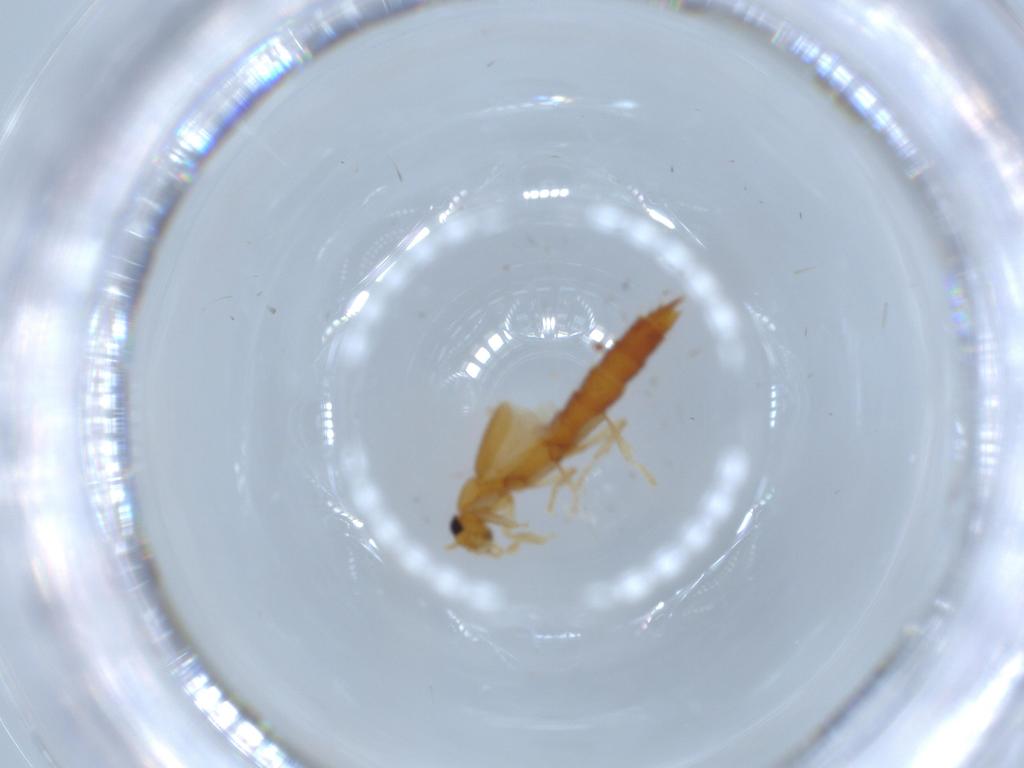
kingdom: Animalia
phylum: Arthropoda
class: Insecta
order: Coleoptera
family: Staphylinidae
